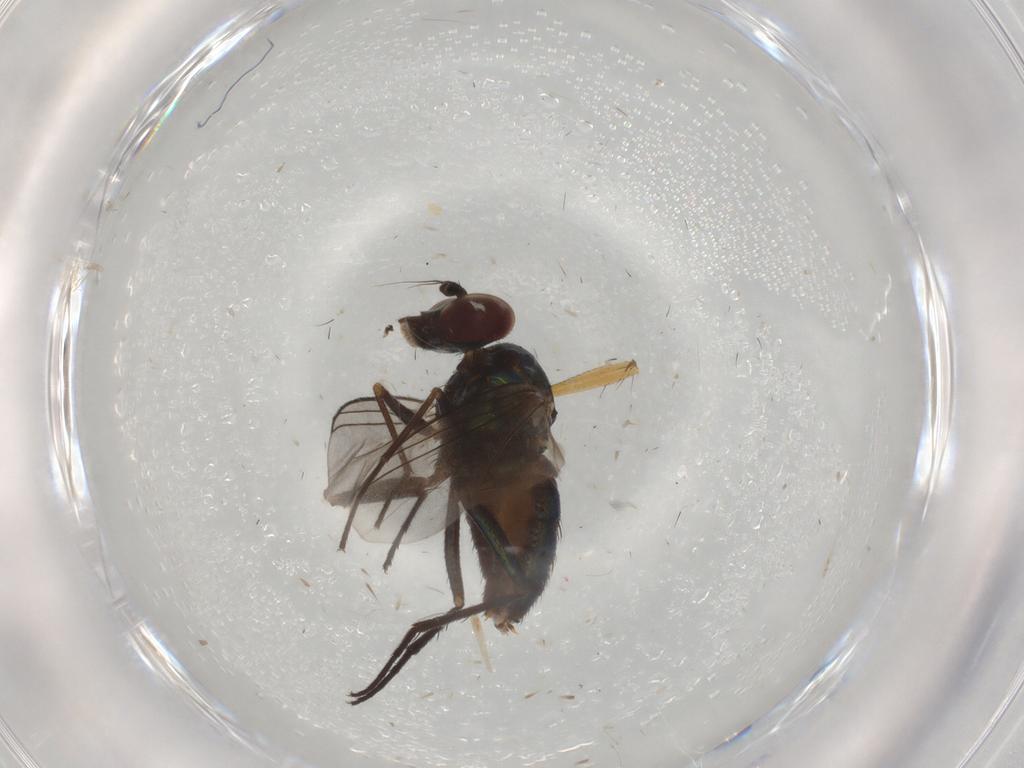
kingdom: Animalia
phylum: Arthropoda
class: Insecta
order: Diptera
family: Dolichopodidae
